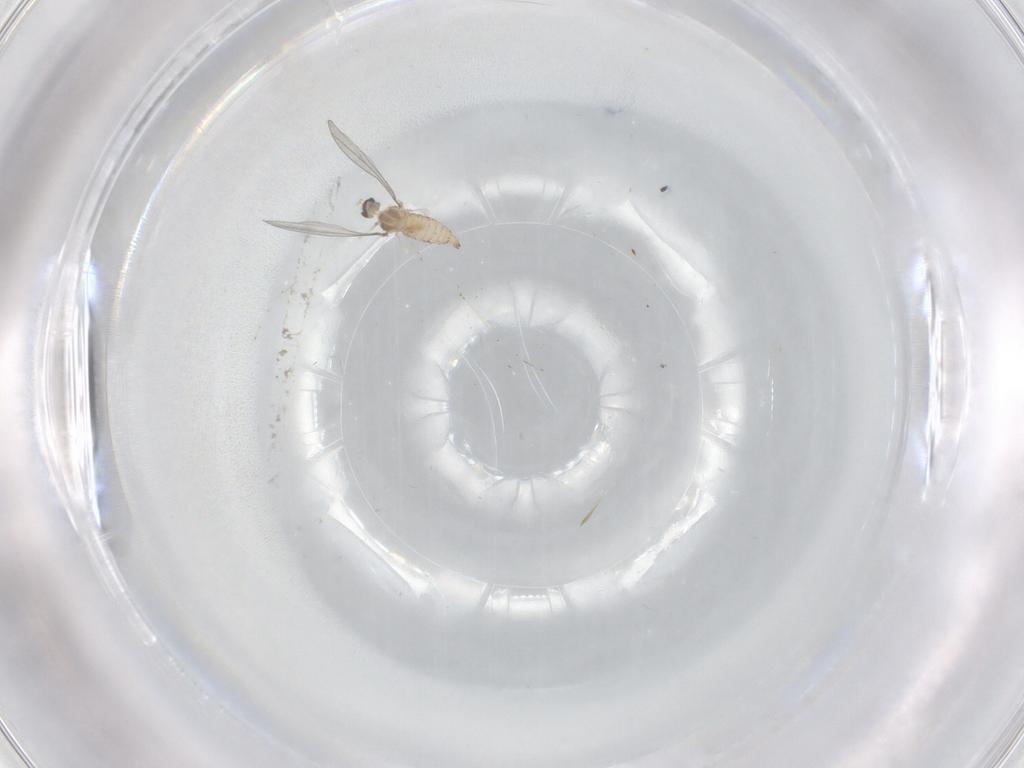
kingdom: Animalia
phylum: Arthropoda
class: Insecta
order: Diptera
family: Cecidomyiidae
